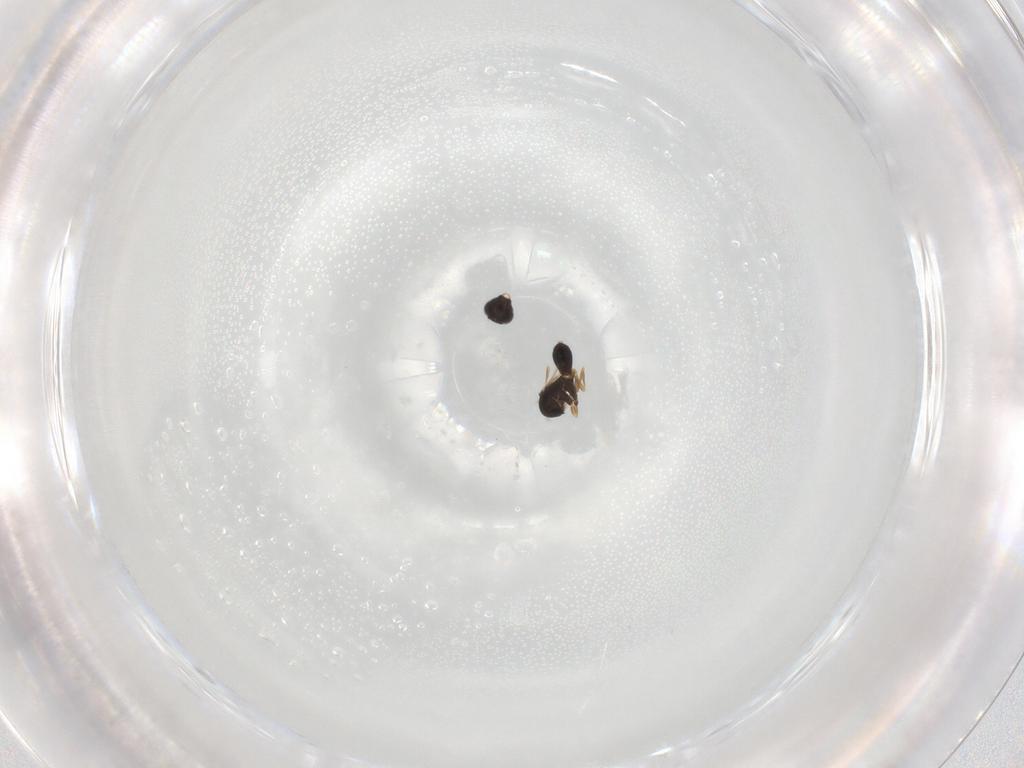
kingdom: Animalia
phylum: Arthropoda
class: Insecta
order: Hymenoptera
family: Scelionidae
